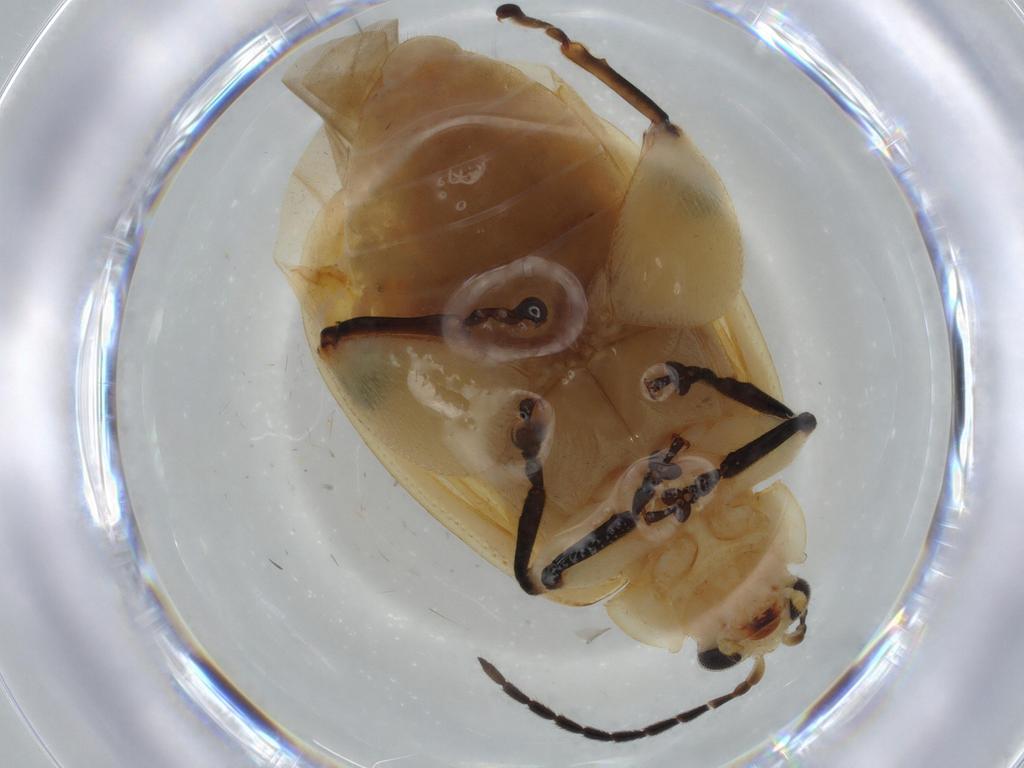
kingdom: Animalia
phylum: Arthropoda
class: Insecta
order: Coleoptera
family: Chrysomelidae
